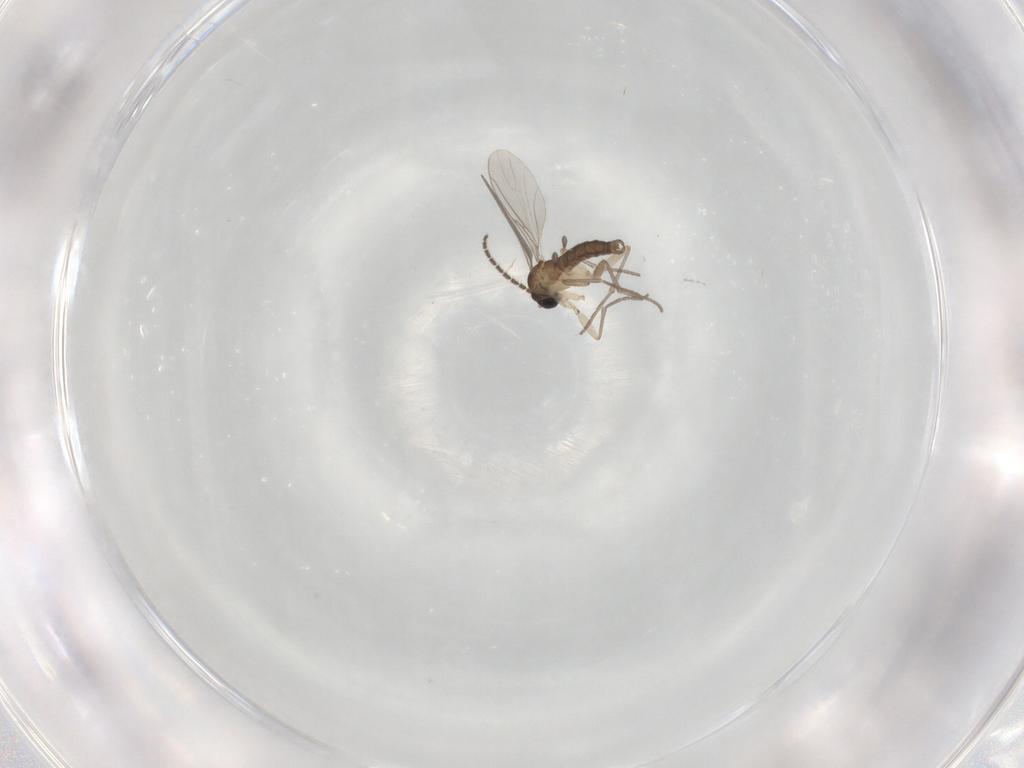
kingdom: Animalia
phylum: Arthropoda
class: Insecta
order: Diptera
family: Sciaridae
